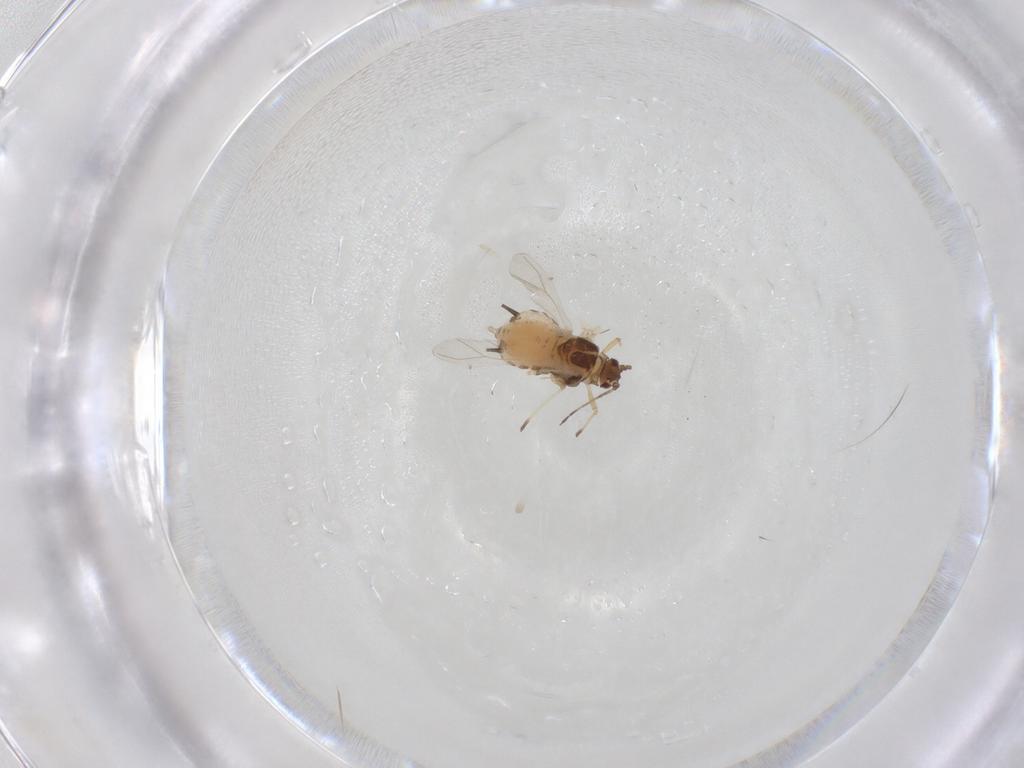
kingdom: Animalia
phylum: Arthropoda
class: Insecta
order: Hemiptera
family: Aphididae
